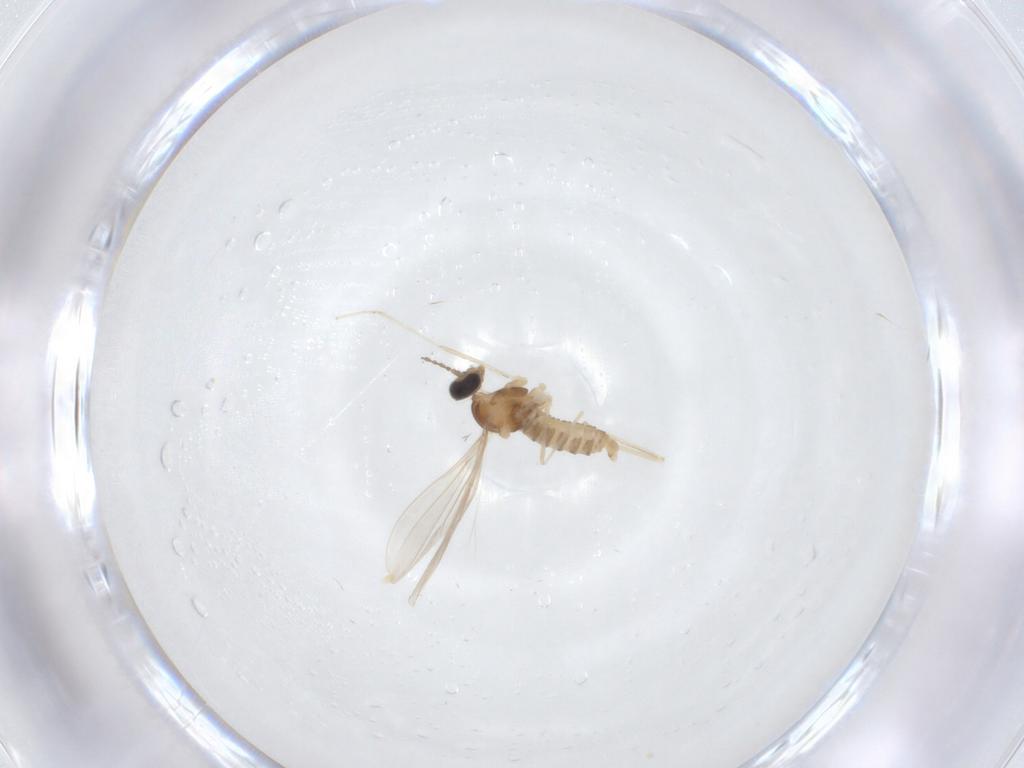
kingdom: Animalia
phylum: Arthropoda
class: Insecta
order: Diptera
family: Cecidomyiidae
